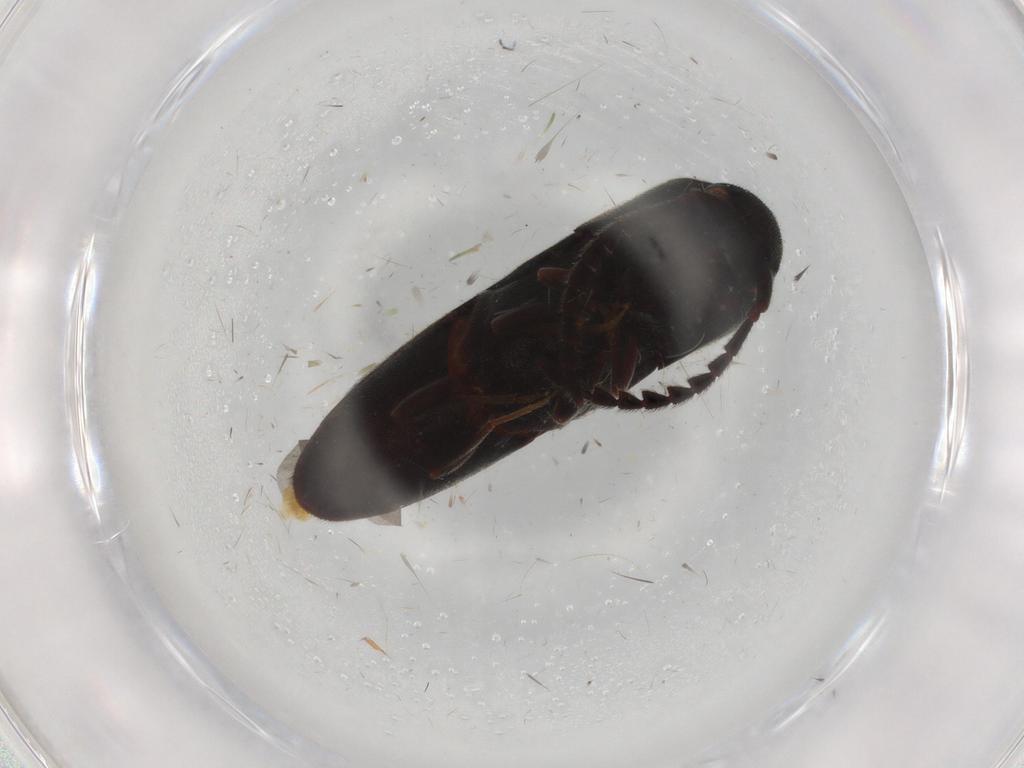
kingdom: Animalia
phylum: Arthropoda
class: Insecta
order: Coleoptera
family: Eucnemidae
